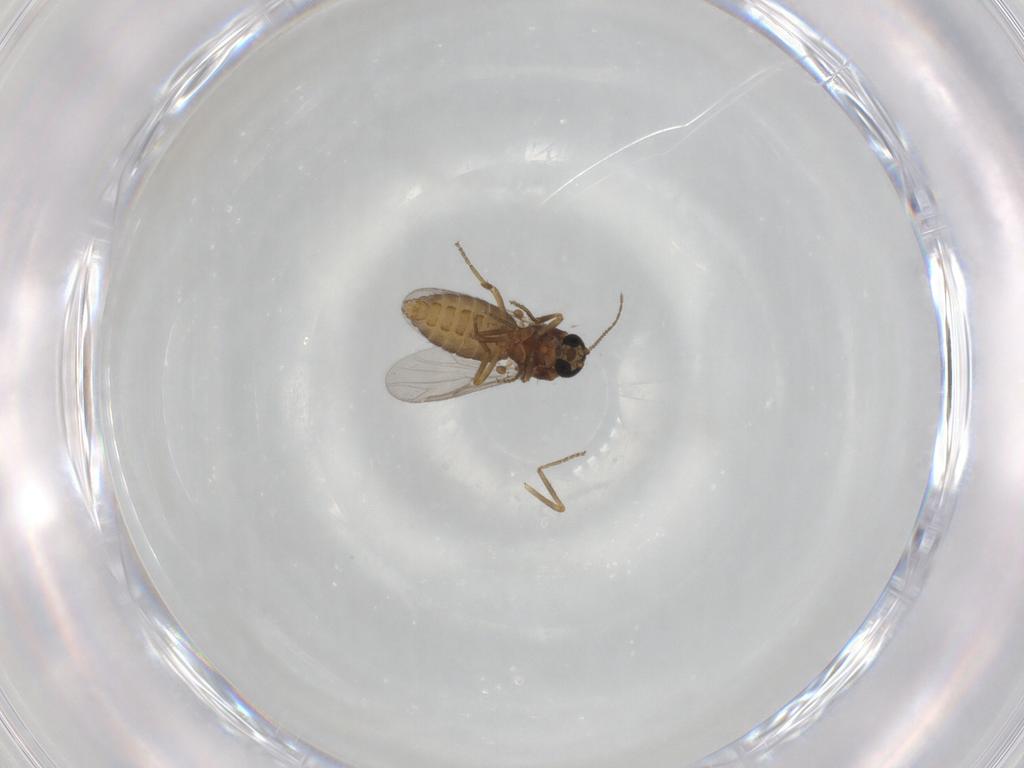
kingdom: Animalia
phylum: Arthropoda
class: Insecta
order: Diptera
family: Ceratopogonidae
